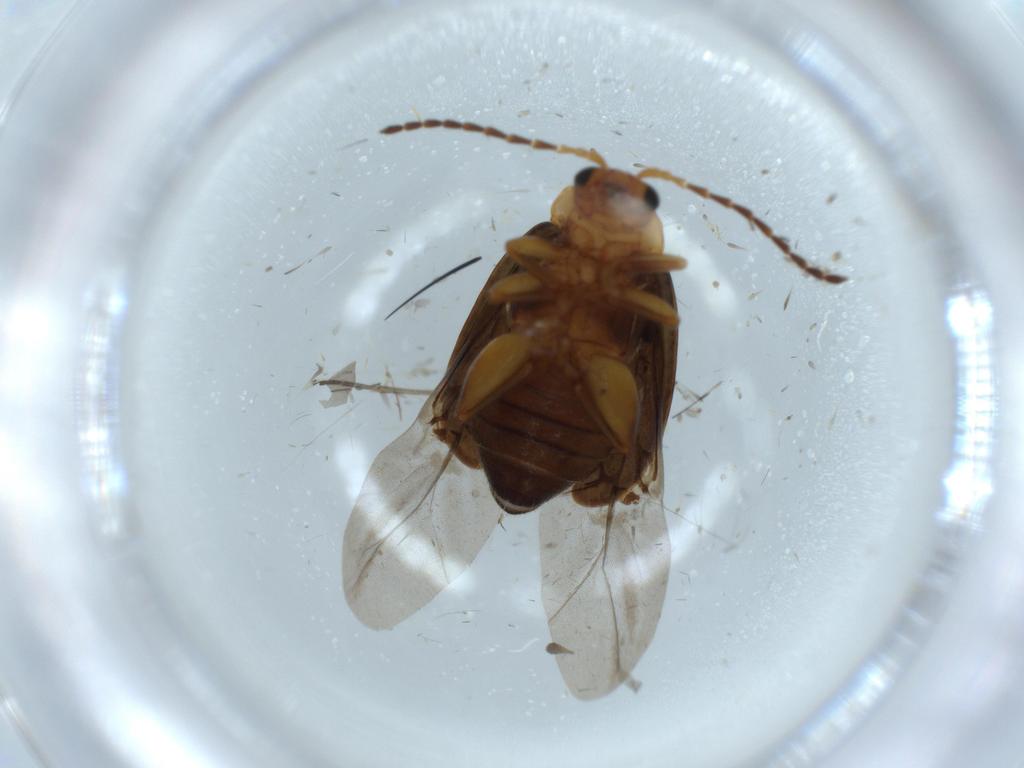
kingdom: Animalia
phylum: Arthropoda
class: Insecta
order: Coleoptera
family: Chrysomelidae
